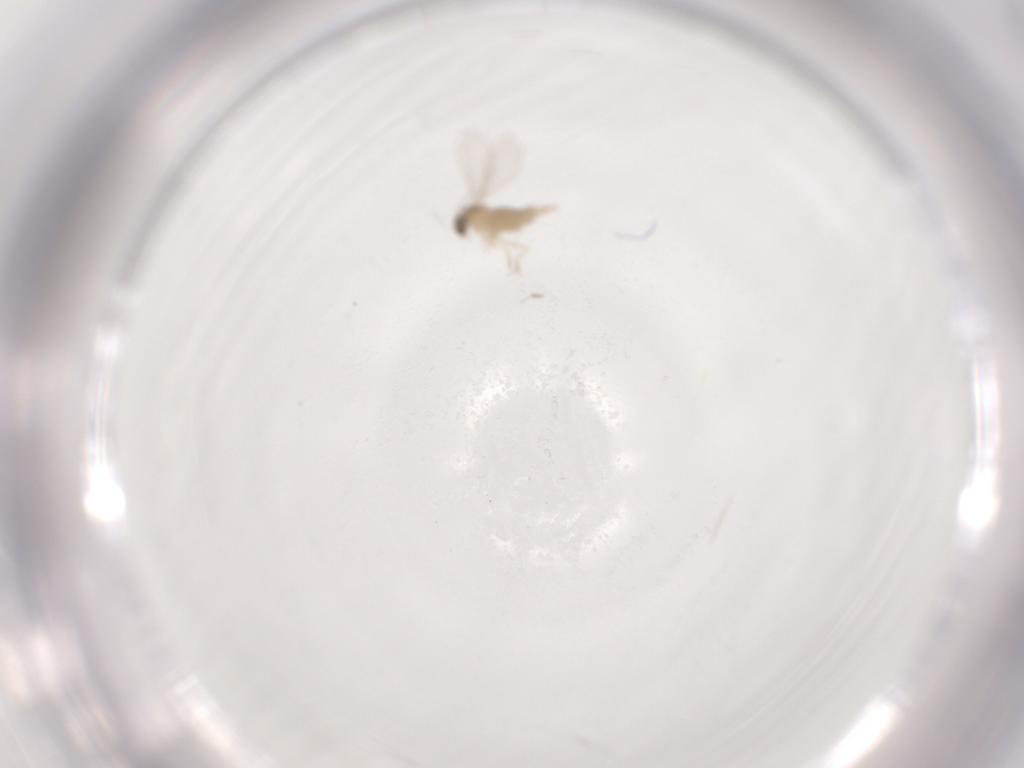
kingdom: Animalia
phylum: Arthropoda
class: Insecta
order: Diptera
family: Cecidomyiidae
